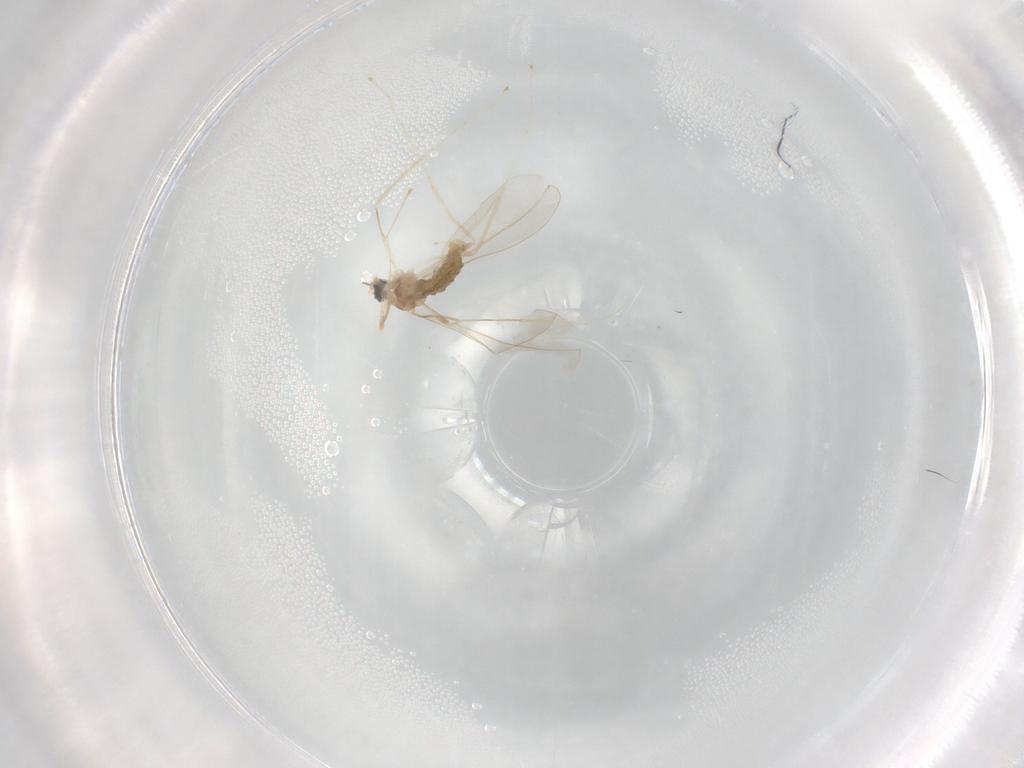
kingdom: Animalia
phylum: Arthropoda
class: Insecta
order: Diptera
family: Cecidomyiidae
